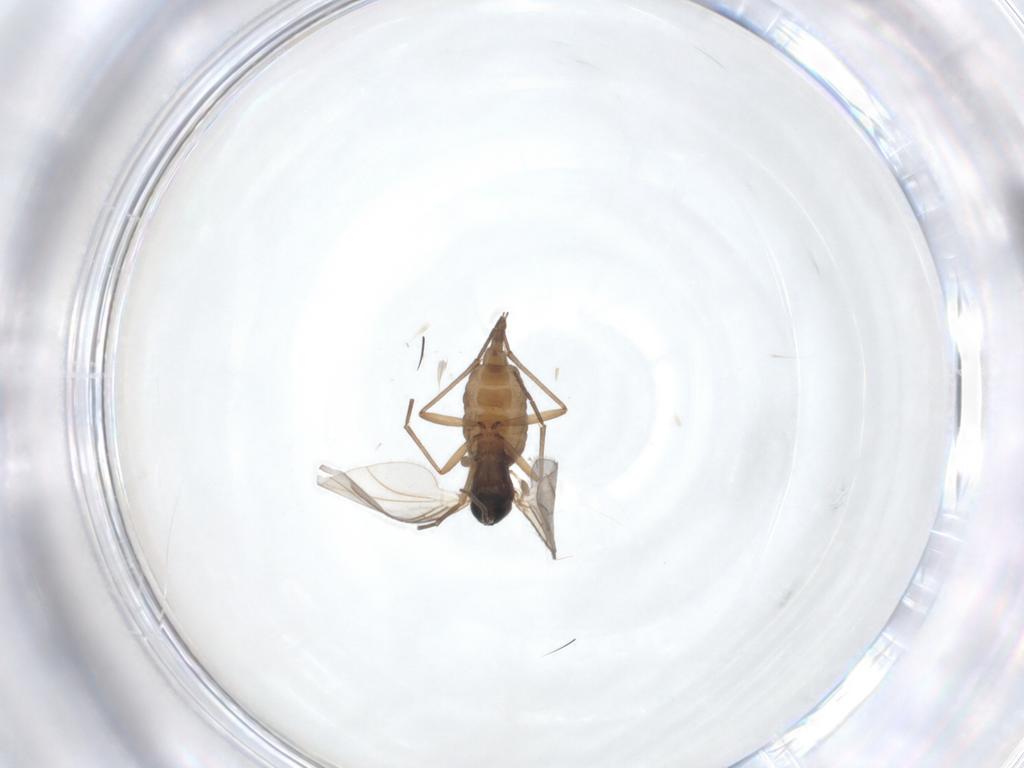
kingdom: Animalia
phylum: Arthropoda
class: Insecta
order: Diptera
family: Sciaridae
